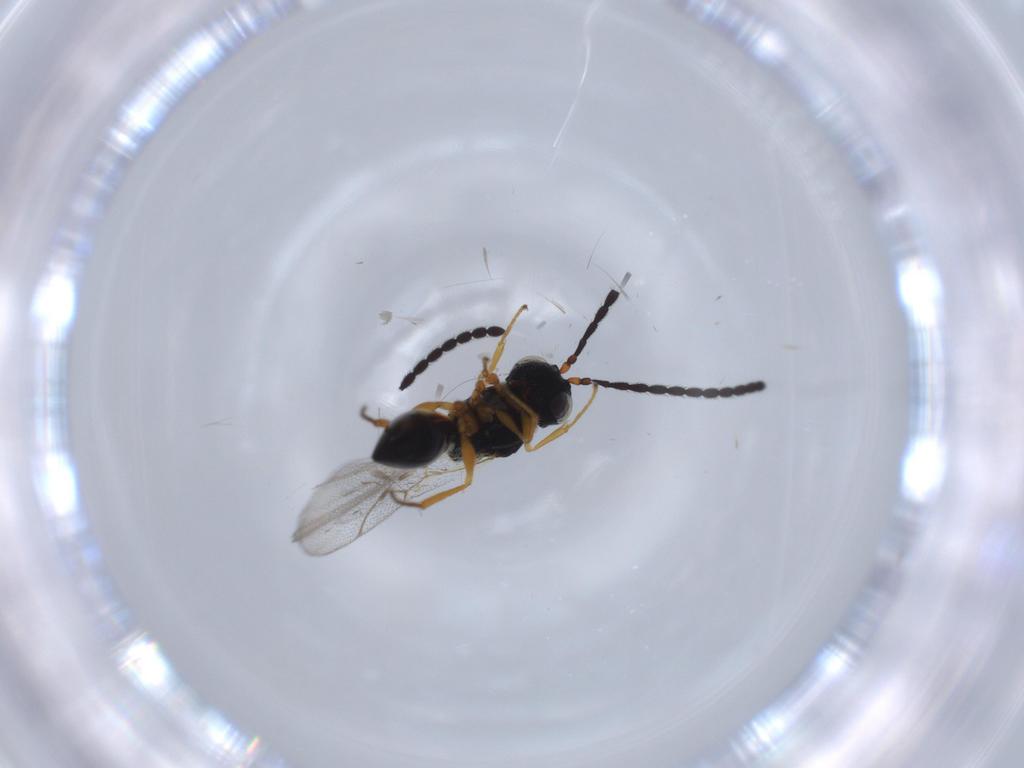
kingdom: Animalia
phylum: Arthropoda
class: Insecta
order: Hymenoptera
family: Figitidae
